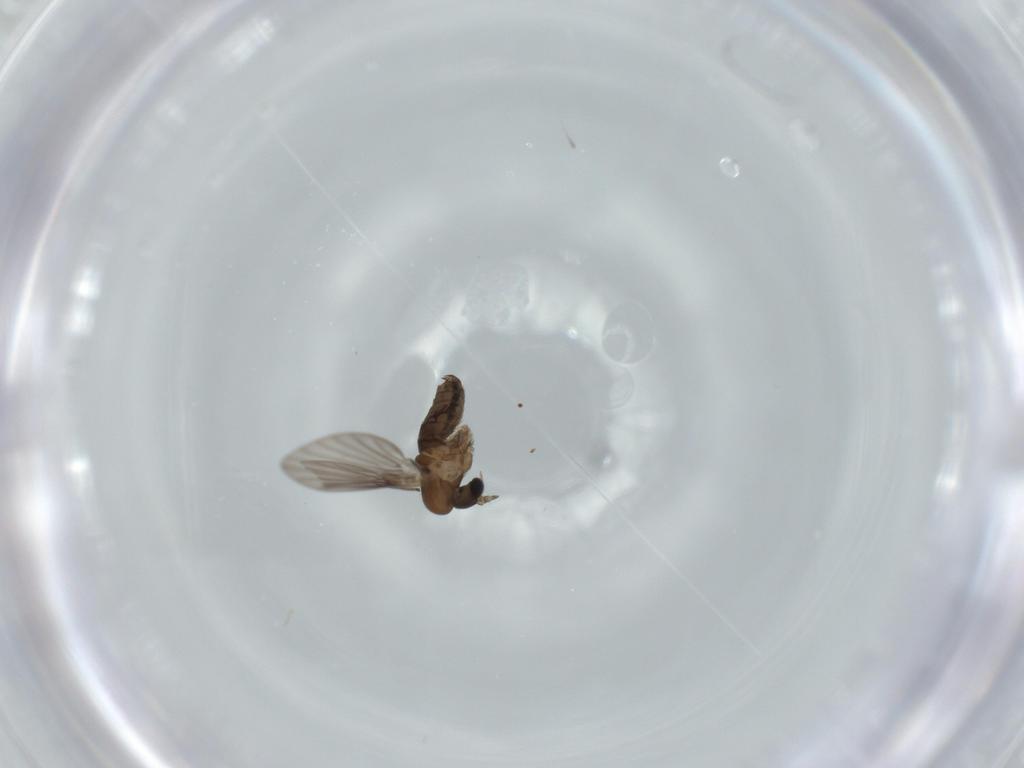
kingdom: Animalia
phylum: Arthropoda
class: Insecta
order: Diptera
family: Psychodidae
